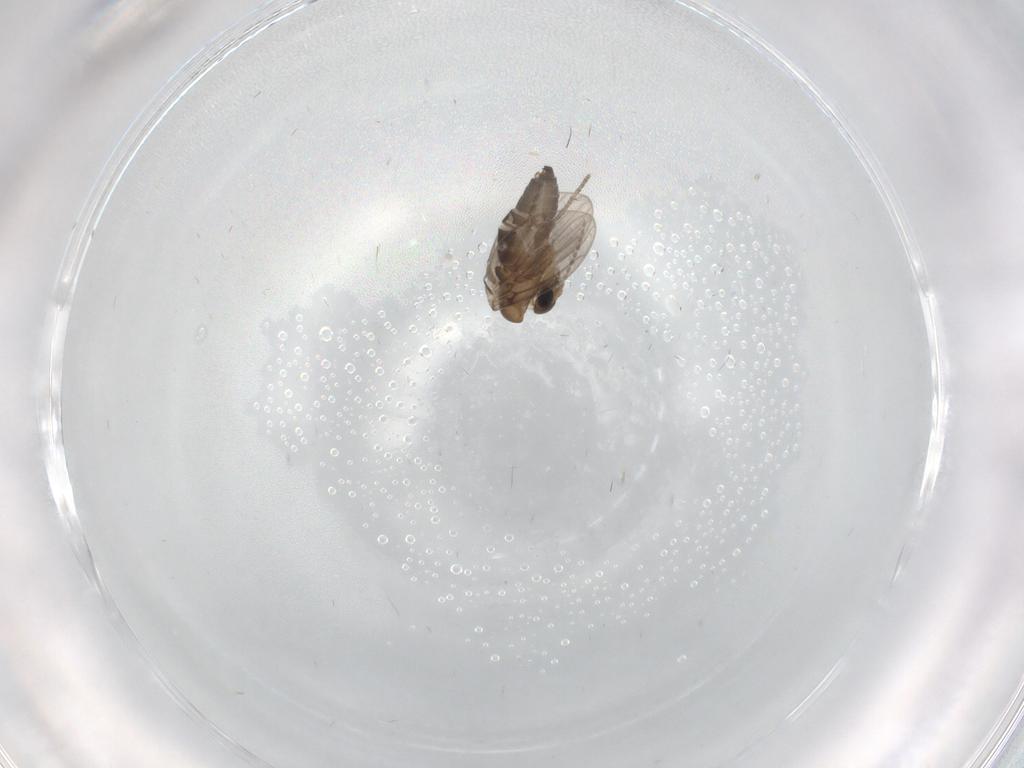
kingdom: Animalia
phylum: Arthropoda
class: Insecta
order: Diptera
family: Psychodidae
